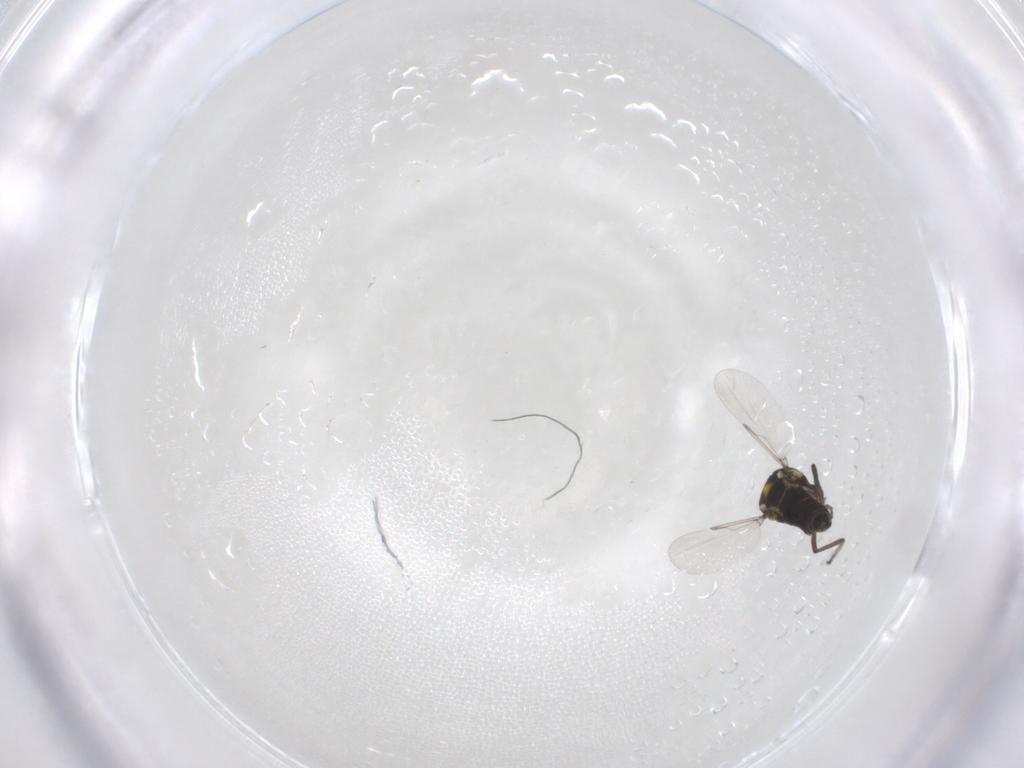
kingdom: Animalia
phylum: Arthropoda
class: Insecta
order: Diptera
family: Ceratopogonidae
